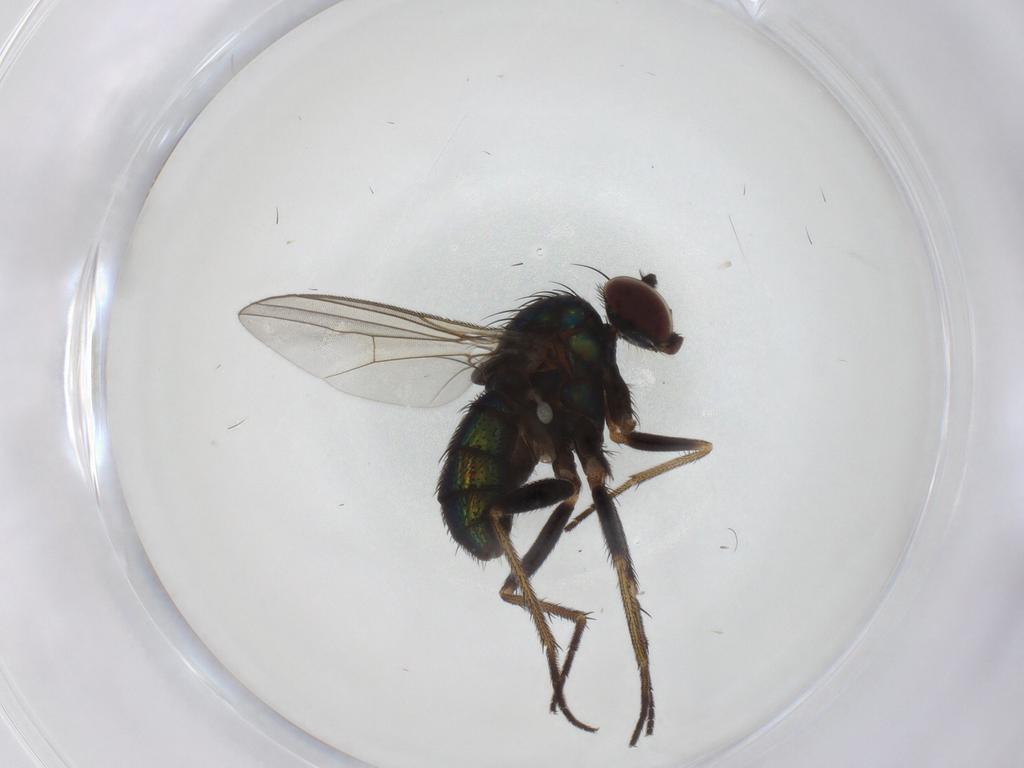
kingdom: Animalia
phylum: Arthropoda
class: Insecta
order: Diptera
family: Dolichopodidae
